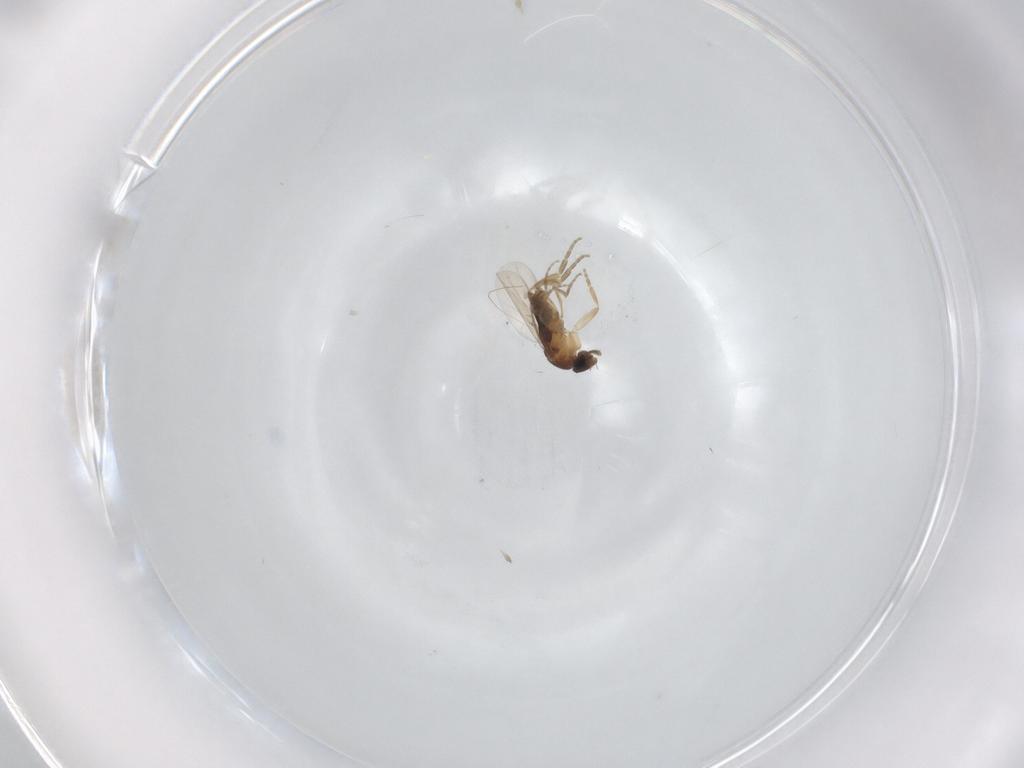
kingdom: Animalia
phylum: Arthropoda
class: Insecta
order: Diptera
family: Phoridae
